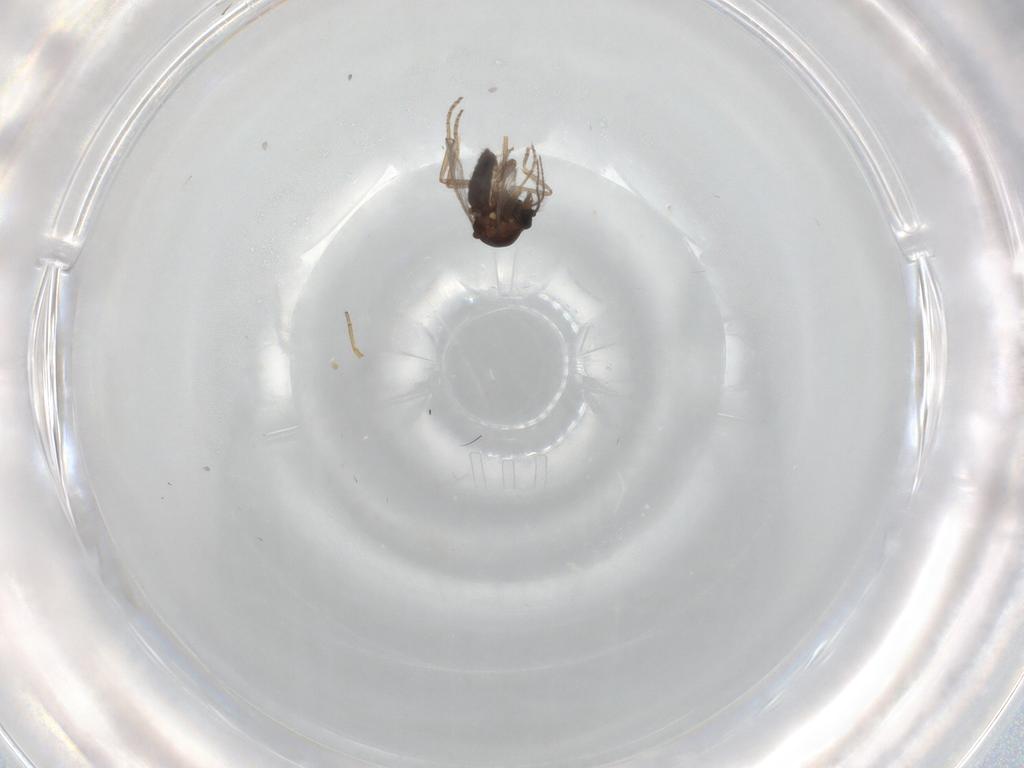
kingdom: Animalia
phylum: Arthropoda
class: Insecta
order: Diptera
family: Ceratopogonidae
